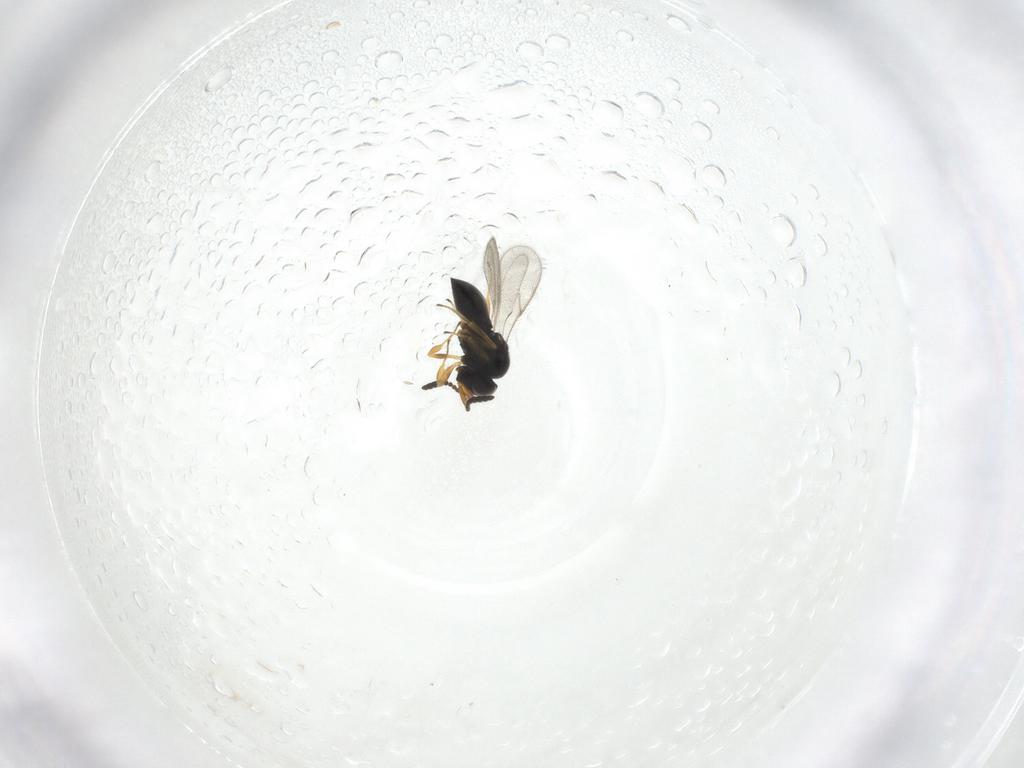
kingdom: Animalia
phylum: Arthropoda
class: Insecta
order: Hymenoptera
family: Scelionidae
